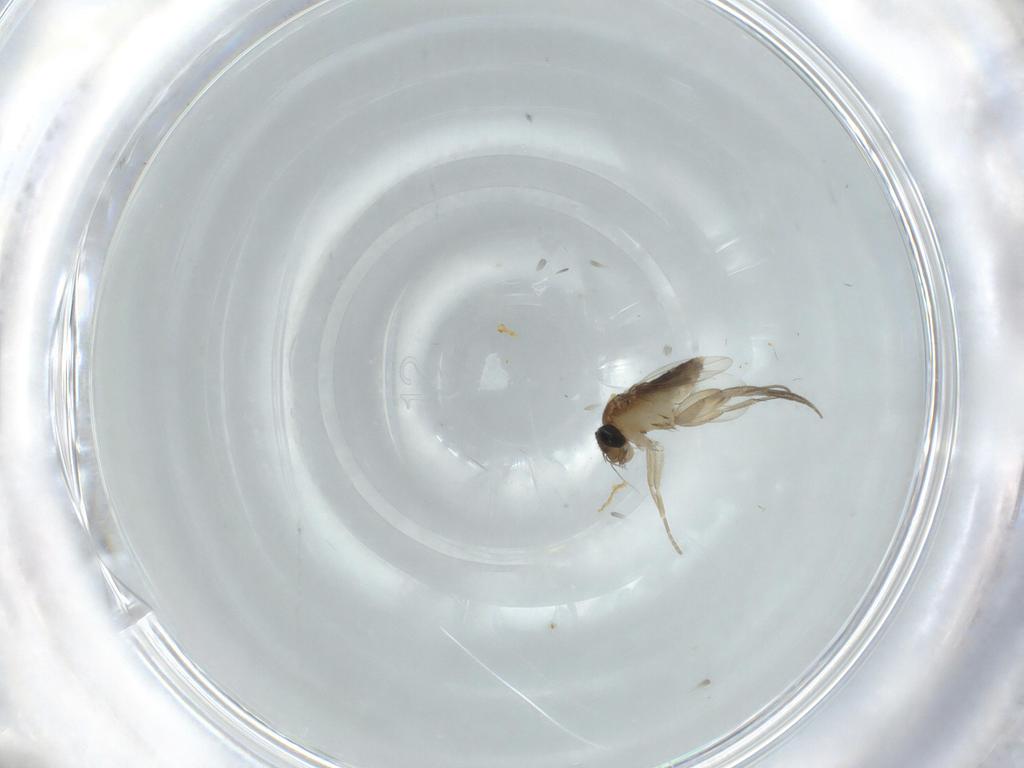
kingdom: Animalia
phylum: Arthropoda
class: Insecta
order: Diptera
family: Phoridae
